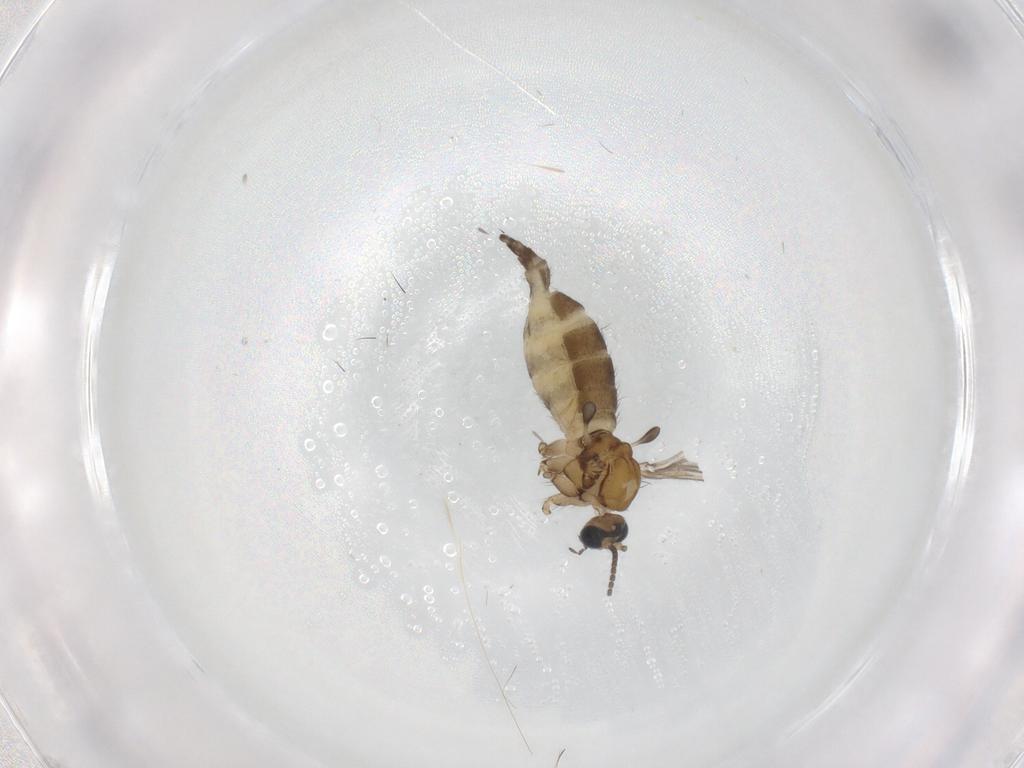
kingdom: Animalia
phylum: Arthropoda
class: Insecta
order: Diptera
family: Sciaridae
